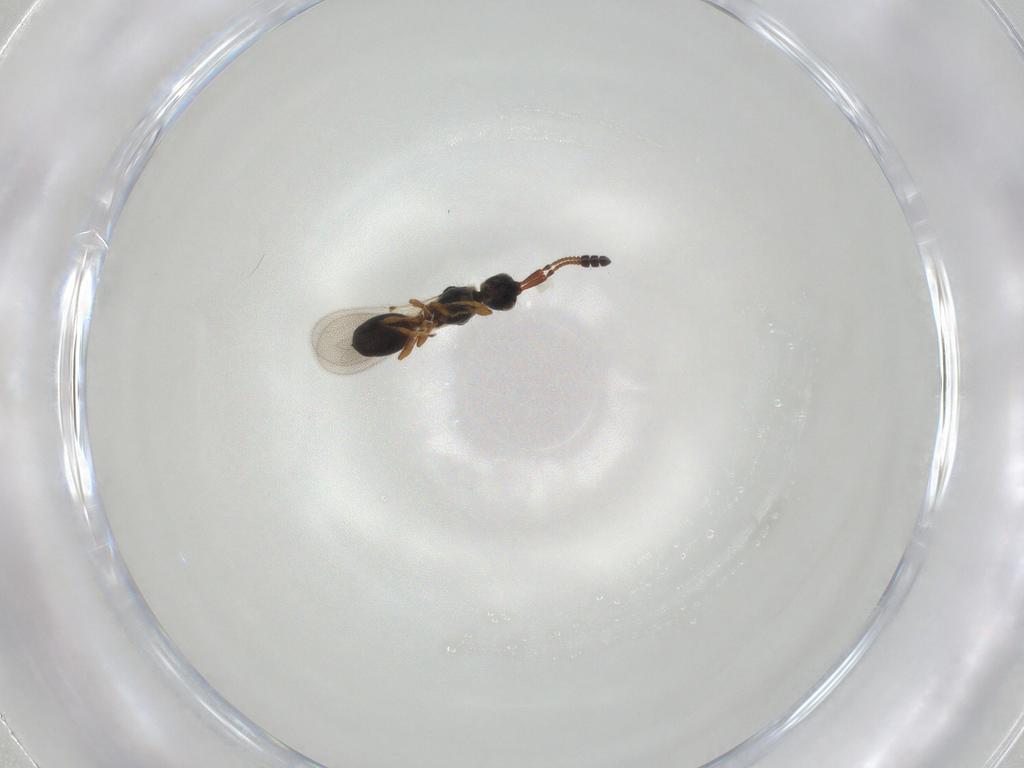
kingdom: Animalia
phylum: Arthropoda
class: Insecta
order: Hymenoptera
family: Diapriidae
